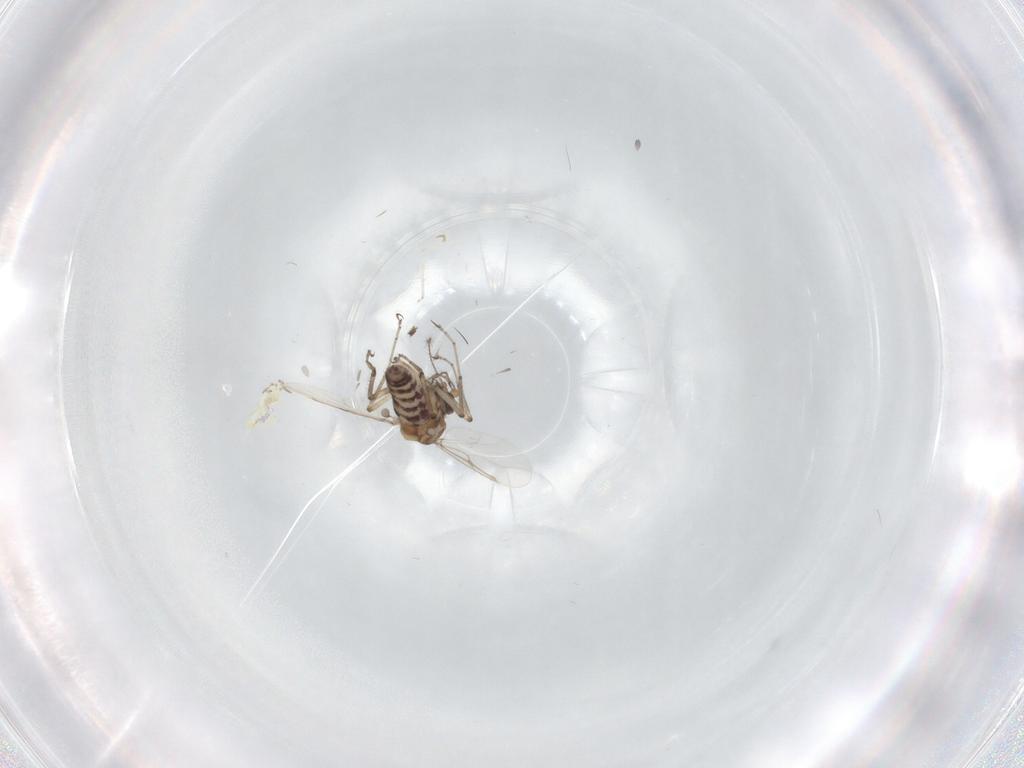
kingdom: Animalia
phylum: Arthropoda
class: Insecta
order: Diptera
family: Ceratopogonidae
